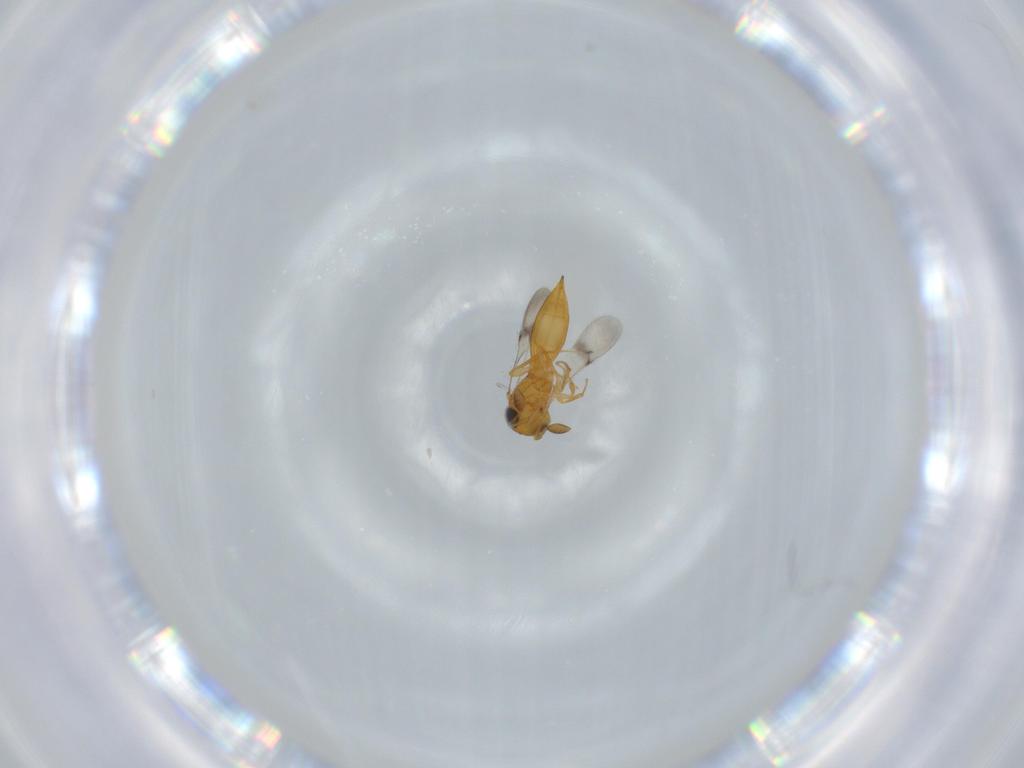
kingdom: Animalia
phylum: Arthropoda
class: Insecta
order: Hymenoptera
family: Scelionidae
